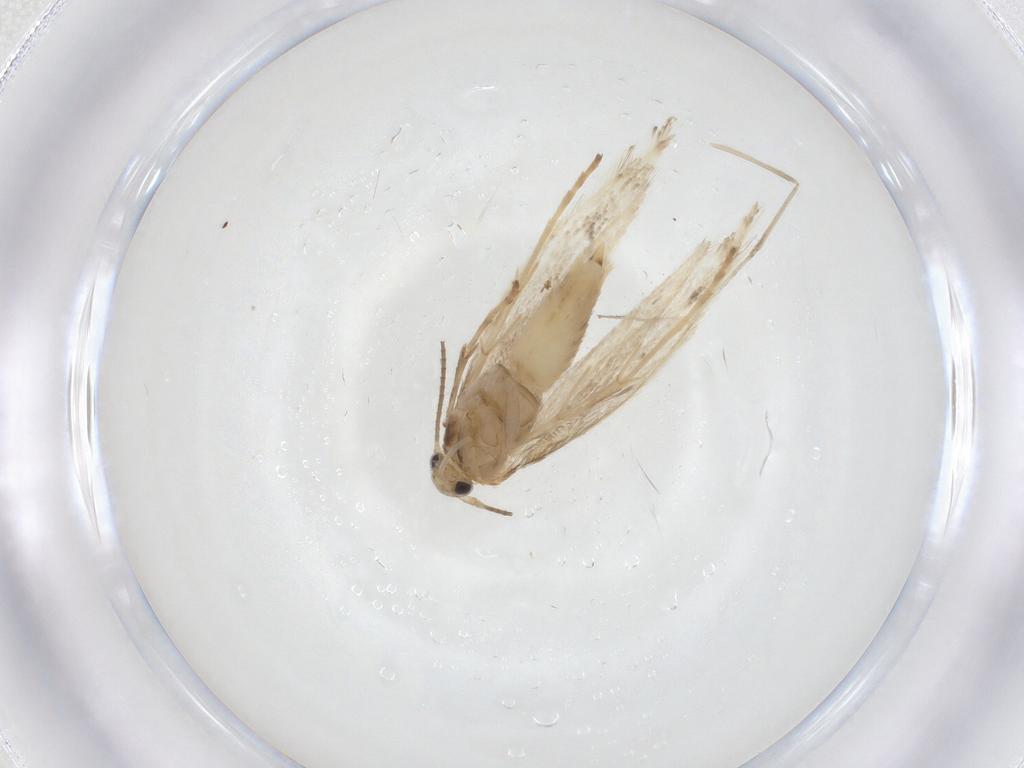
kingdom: Animalia
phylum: Arthropoda
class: Insecta
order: Lepidoptera
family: Gracillariidae
